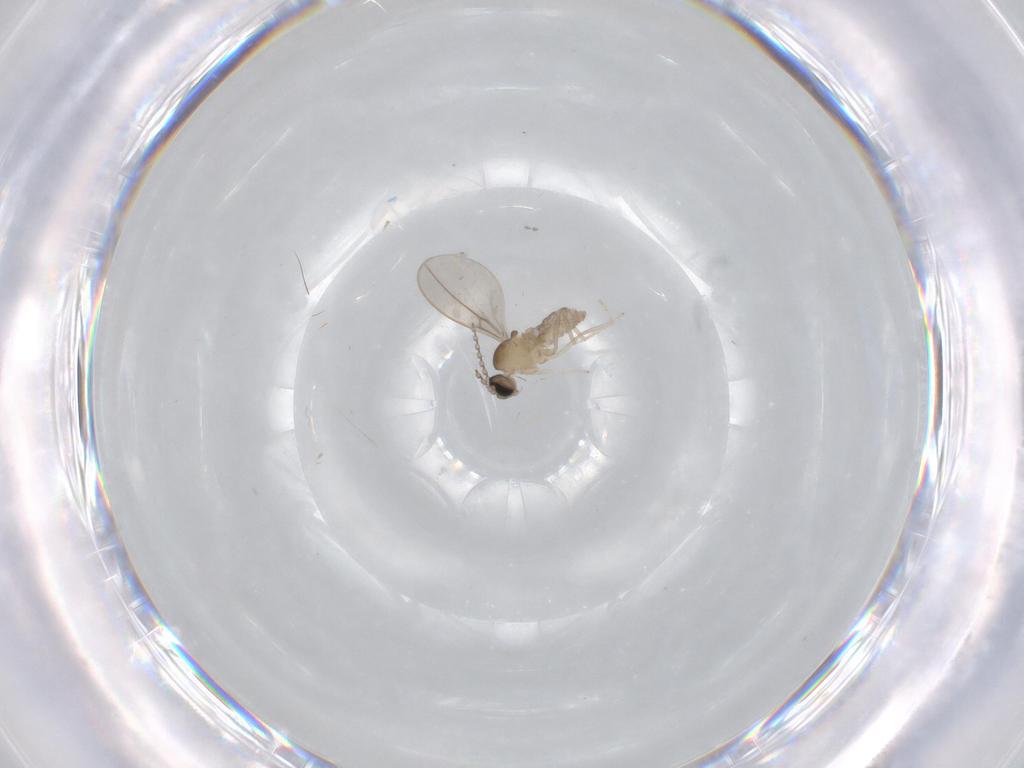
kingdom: Animalia
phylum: Arthropoda
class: Insecta
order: Diptera
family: Cecidomyiidae
